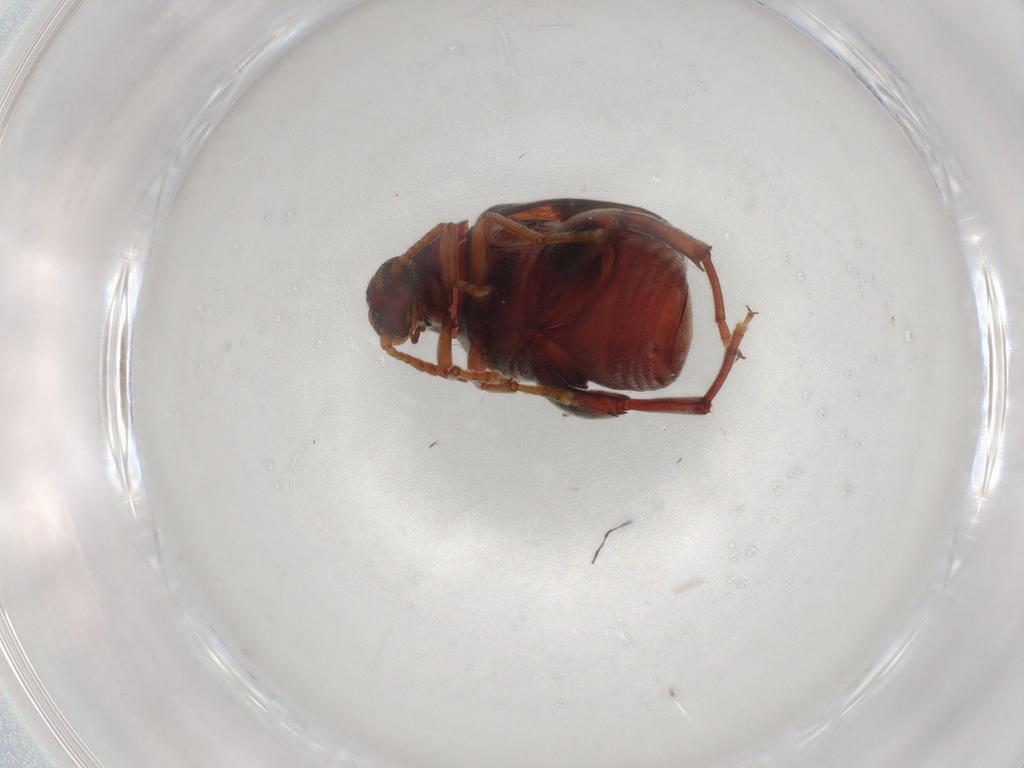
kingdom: Animalia
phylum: Arthropoda
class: Insecta
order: Coleoptera
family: Chrysomelidae
